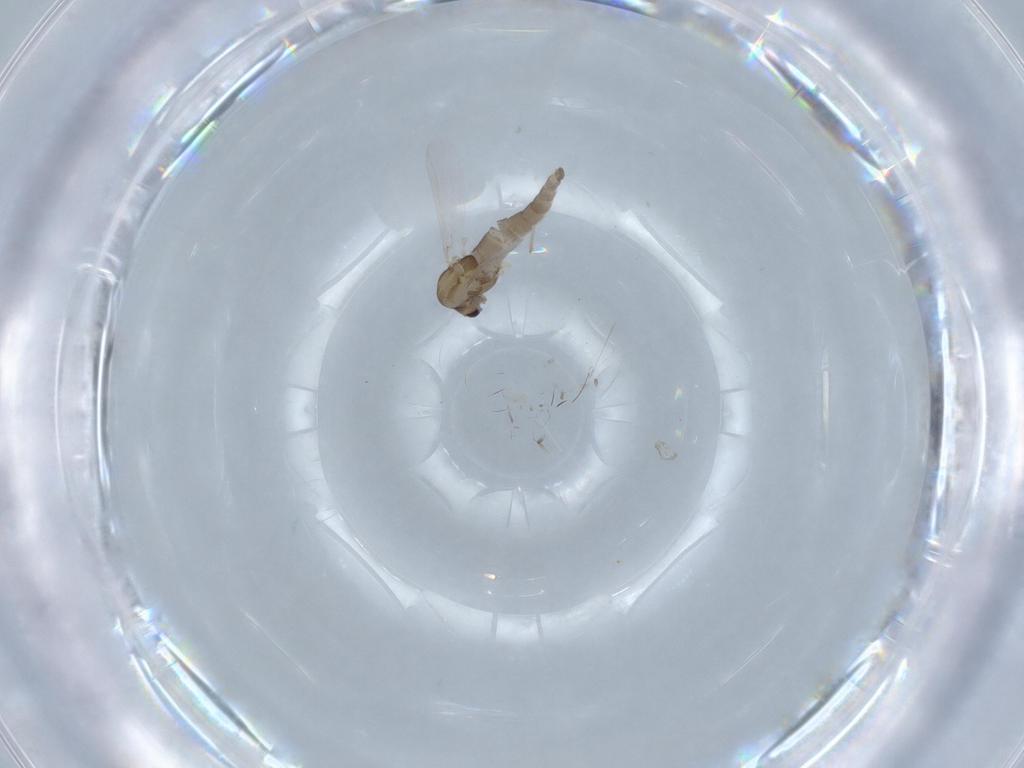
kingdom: Animalia
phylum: Arthropoda
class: Insecta
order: Diptera
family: Chironomidae
